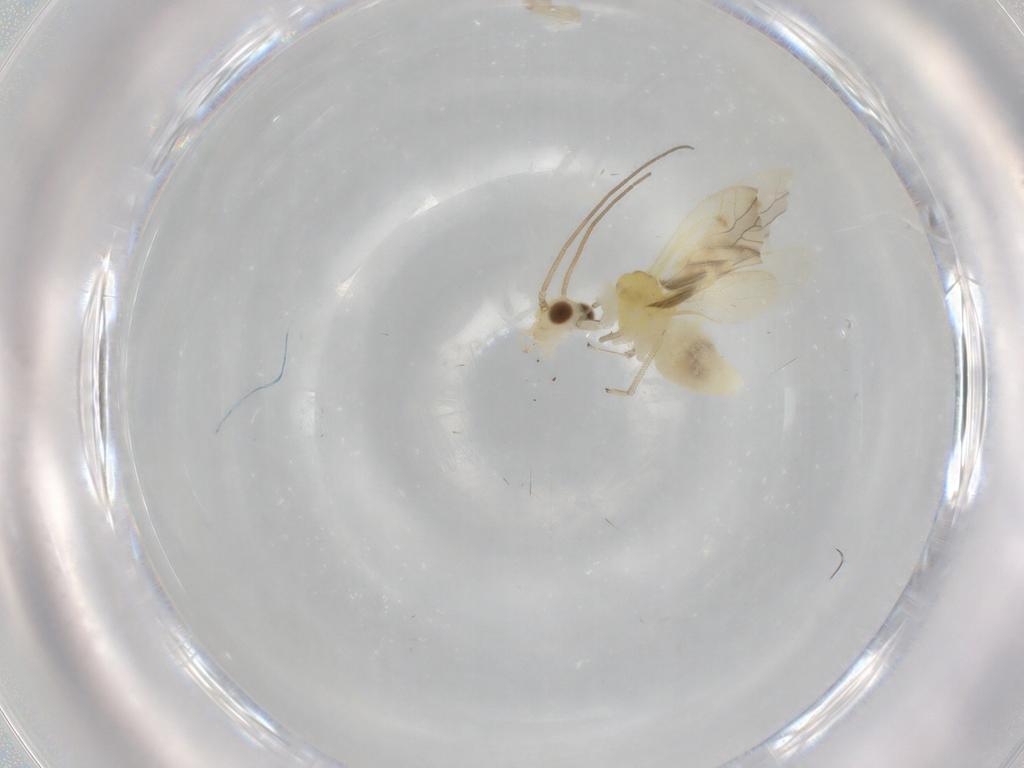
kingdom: Animalia
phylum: Arthropoda
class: Insecta
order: Psocodea
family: Caeciliusidae
